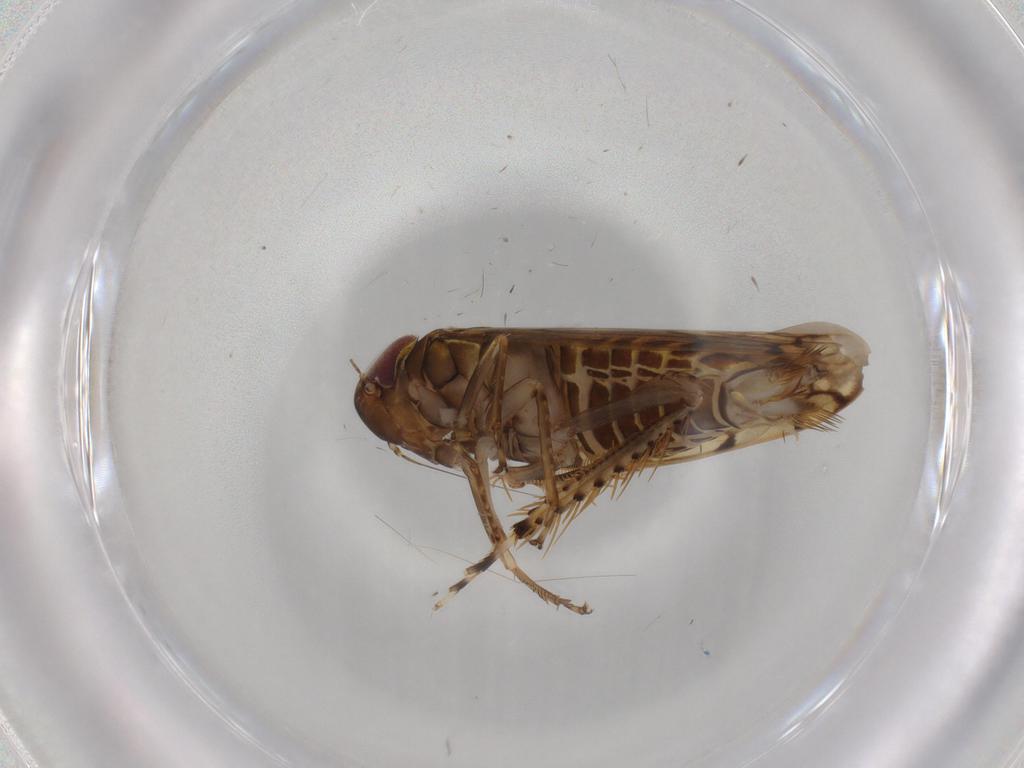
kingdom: Animalia
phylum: Arthropoda
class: Insecta
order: Hemiptera
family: Cicadellidae
